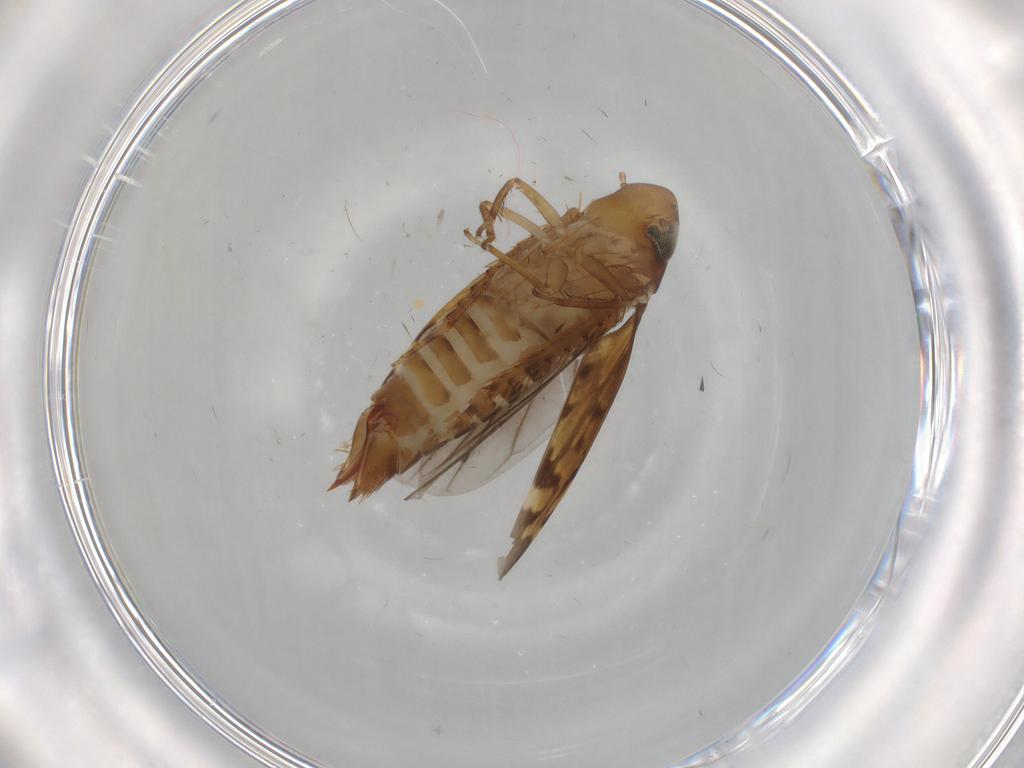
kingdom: Animalia
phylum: Arthropoda
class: Insecta
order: Hemiptera
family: Cicadellidae
